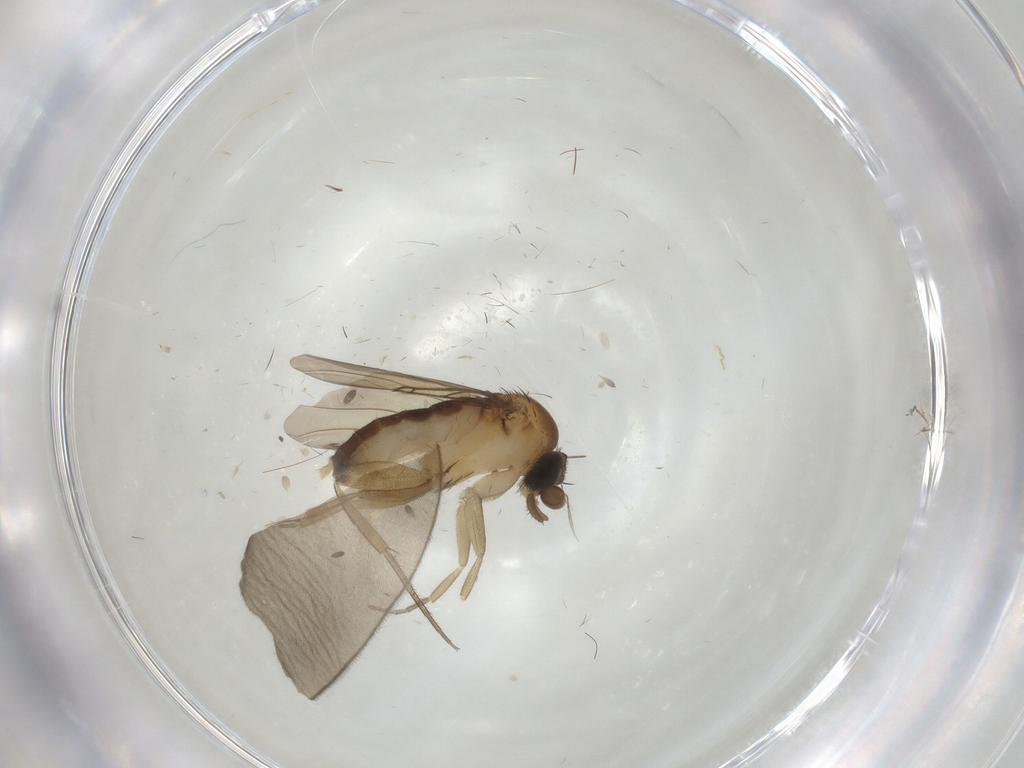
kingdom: Animalia
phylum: Arthropoda
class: Insecta
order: Diptera
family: Phoridae
